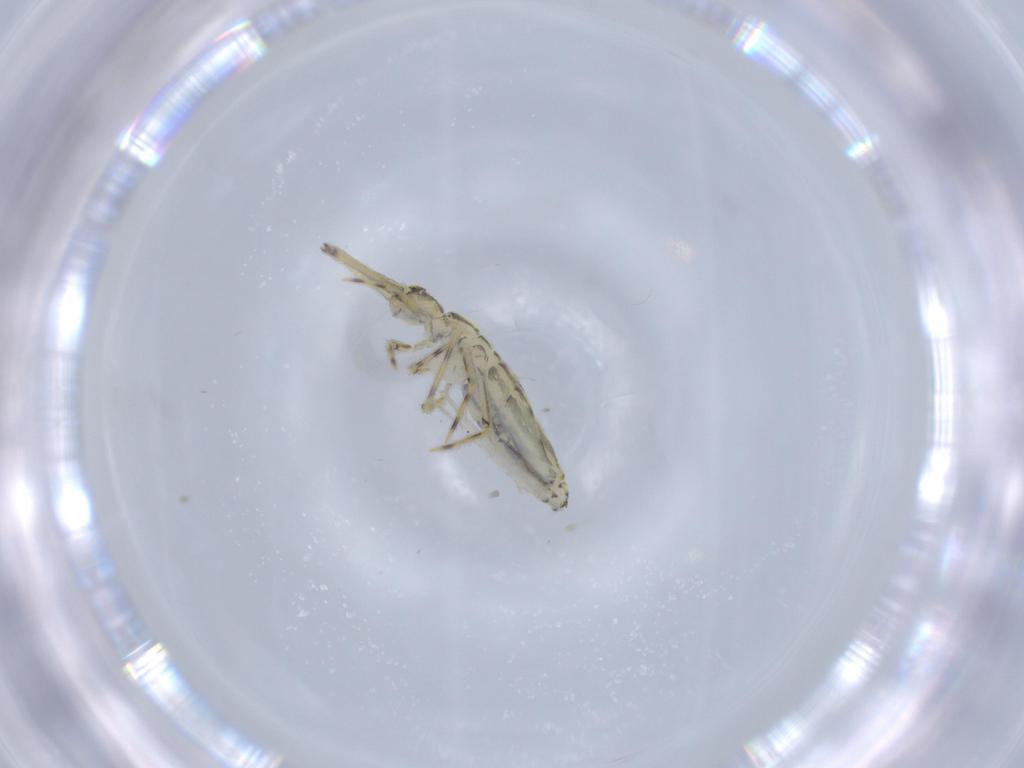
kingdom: Animalia
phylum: Arthropoda
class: Collembola
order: Entomobryomorpha
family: Paronellidae
